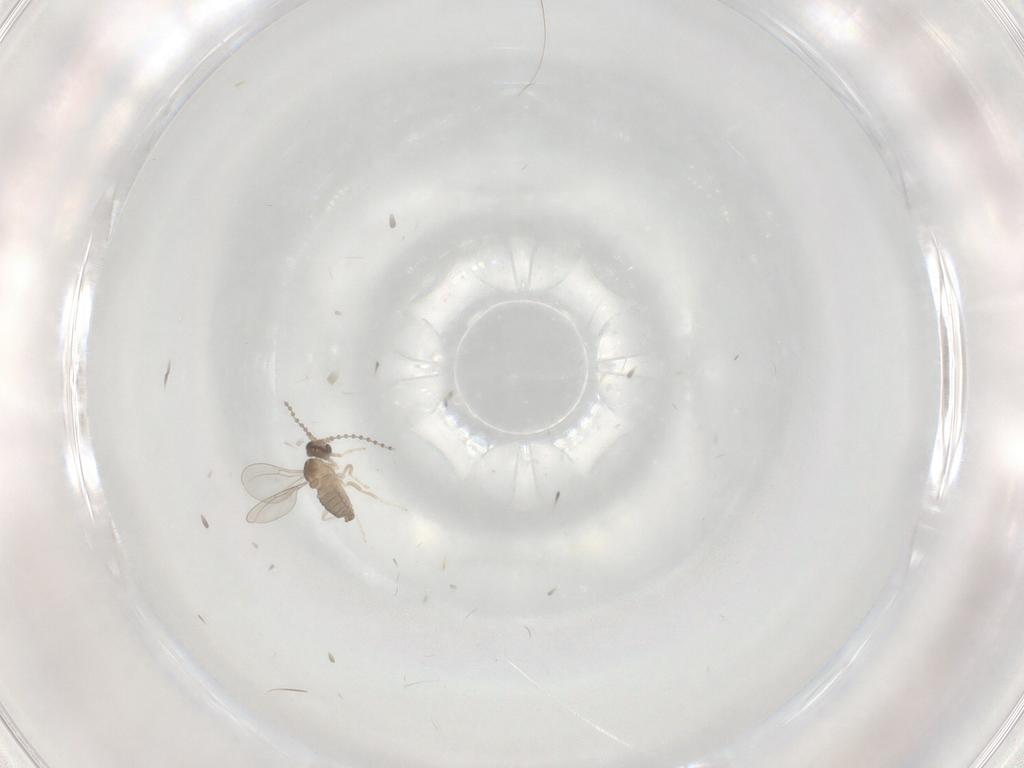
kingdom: Animalia
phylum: Arthropoda
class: Insecta
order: Diptera
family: Cecidomyiidae
